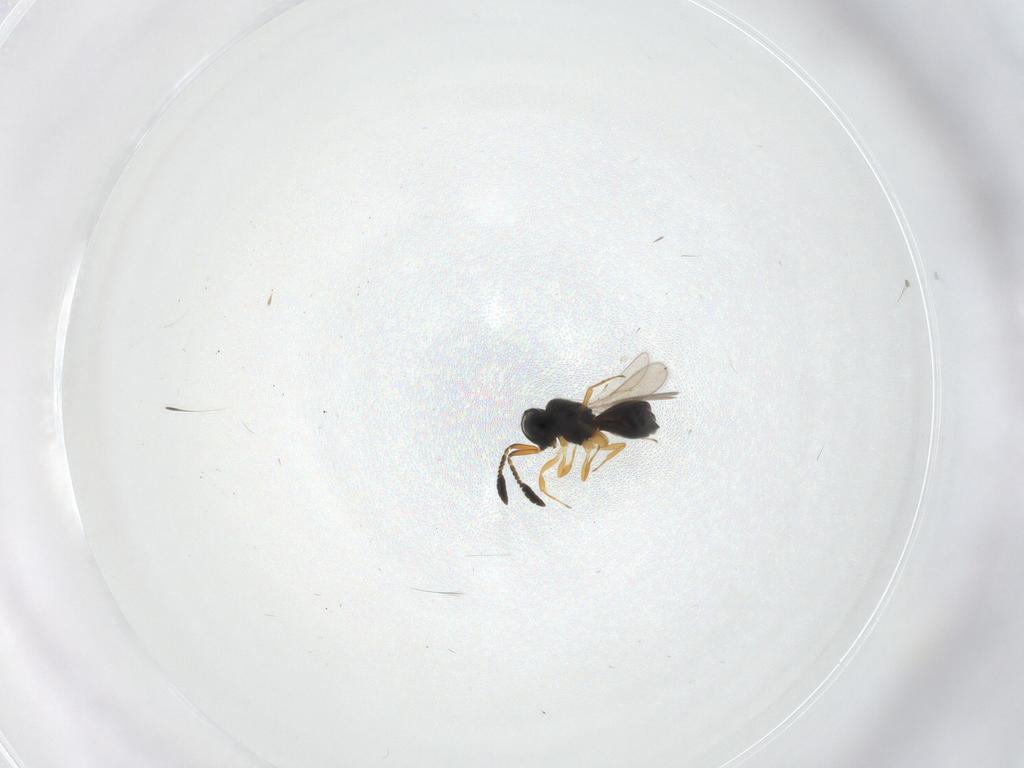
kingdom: Animalia
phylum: Arthropoda
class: Insecta
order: Hymenoptera
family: Scelionidae
